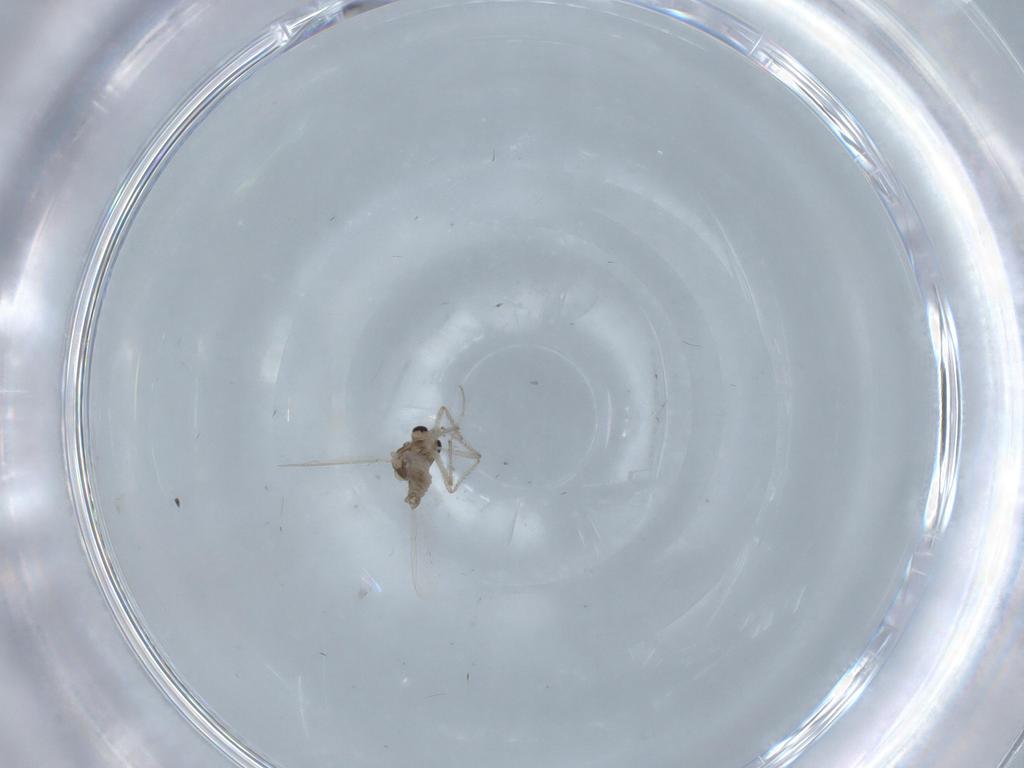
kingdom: Animalia
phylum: Arthropoda
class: Insecta
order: Diptera
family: Chironomidae
